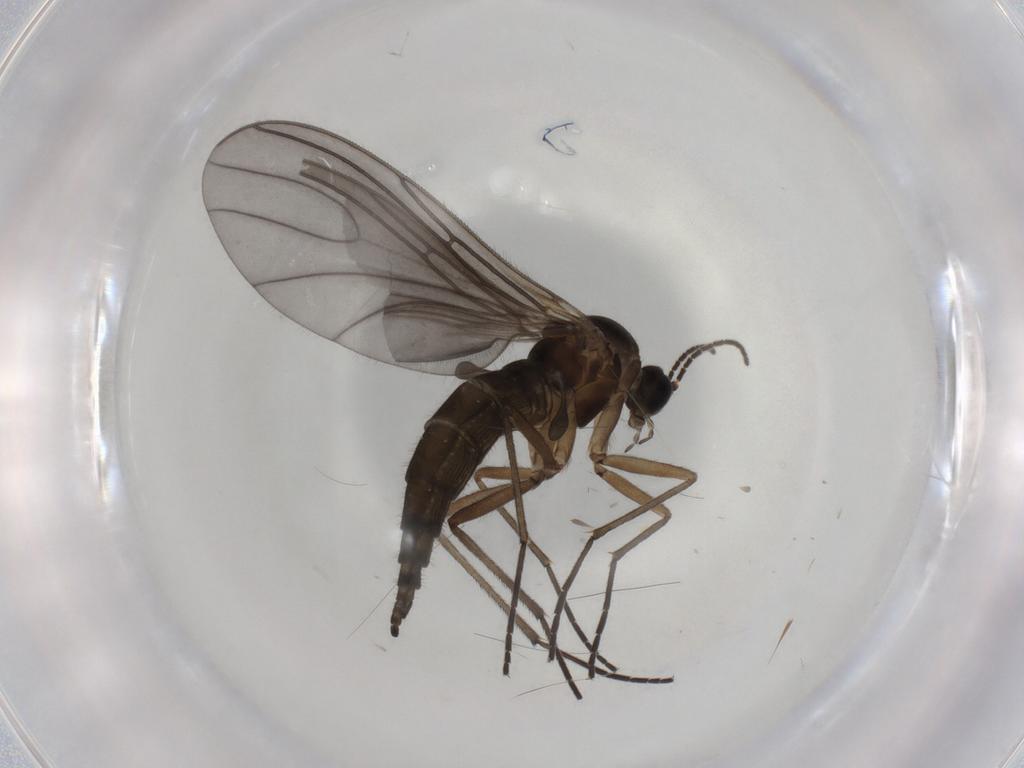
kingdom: Animalia
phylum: Arthropoda
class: Insecta
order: Diptera
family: Sciaridae
